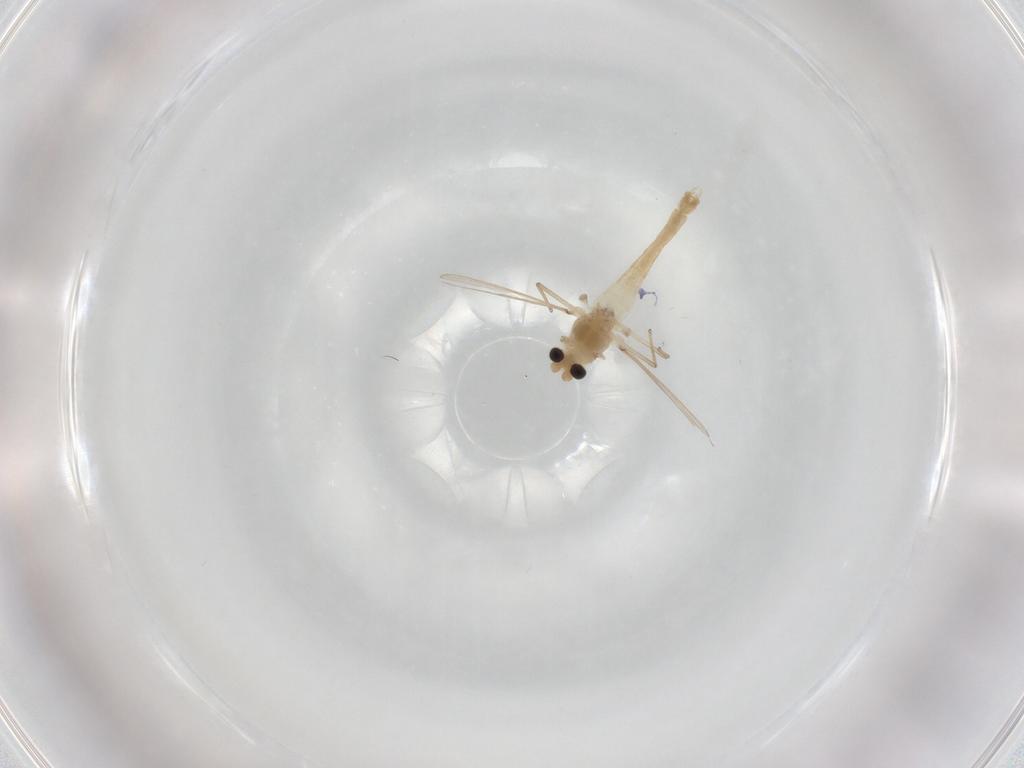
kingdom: Animalia
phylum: Arthropoda
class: Insecta
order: Diptera
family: Chironomidae
